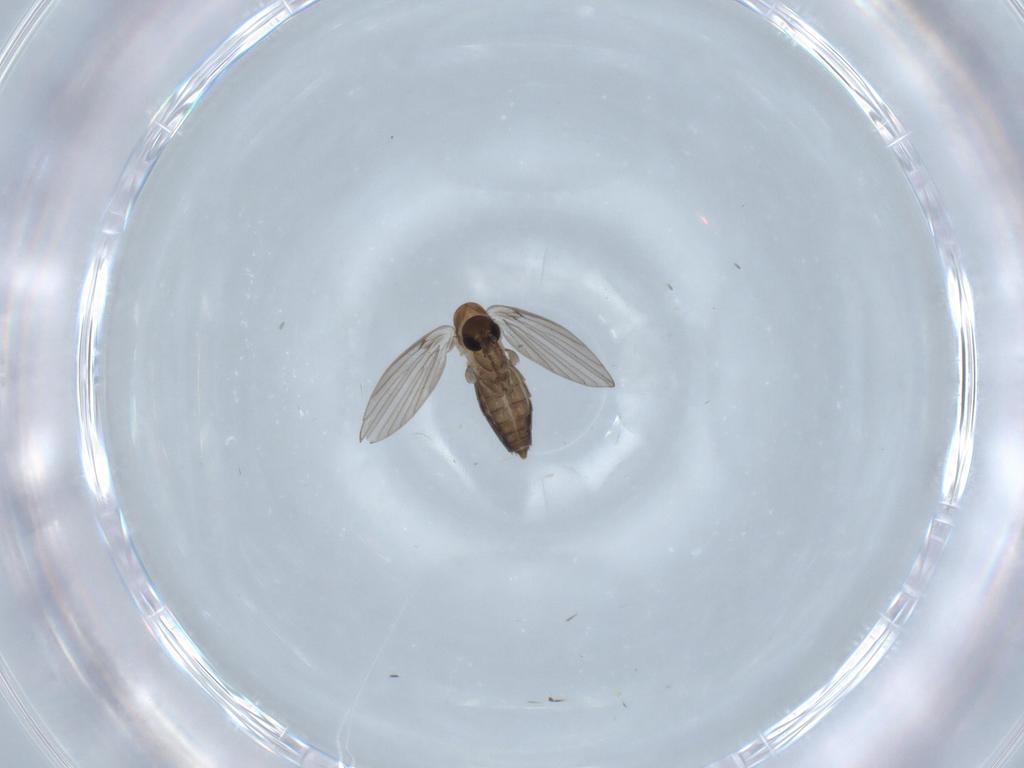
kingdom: Animalia
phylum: Arthropoda
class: Insecta
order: Diptera
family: Psychodidae
